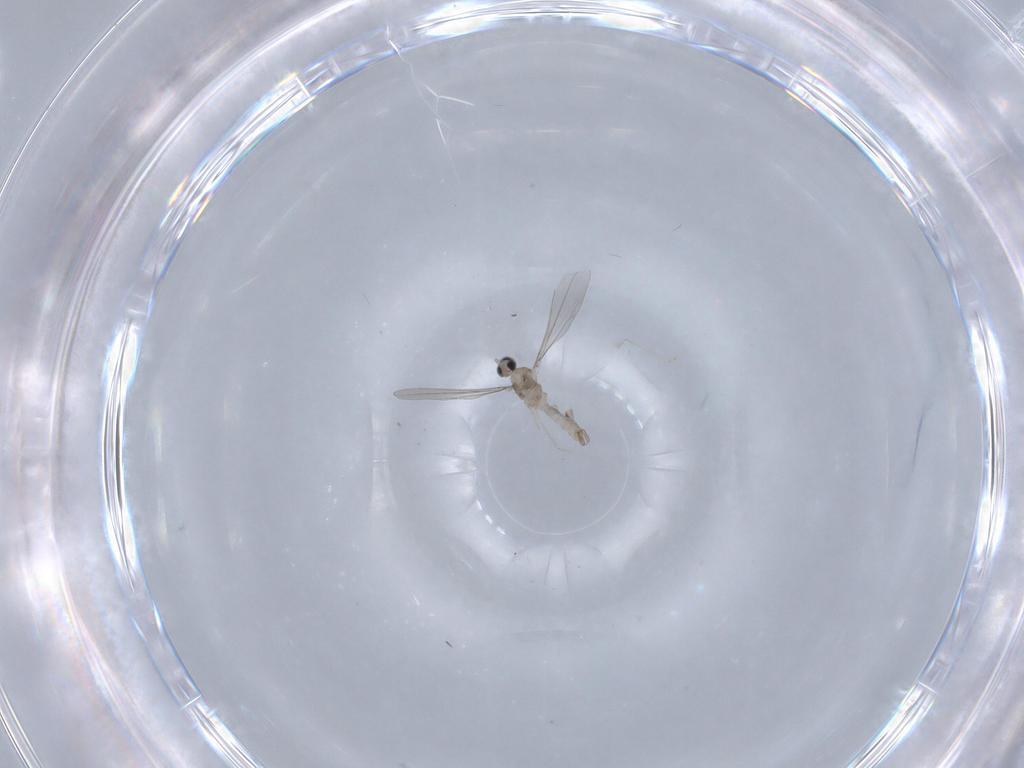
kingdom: Animalia
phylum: Arthropoda
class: Insecta
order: Diptera
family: Cecidomyiidae
